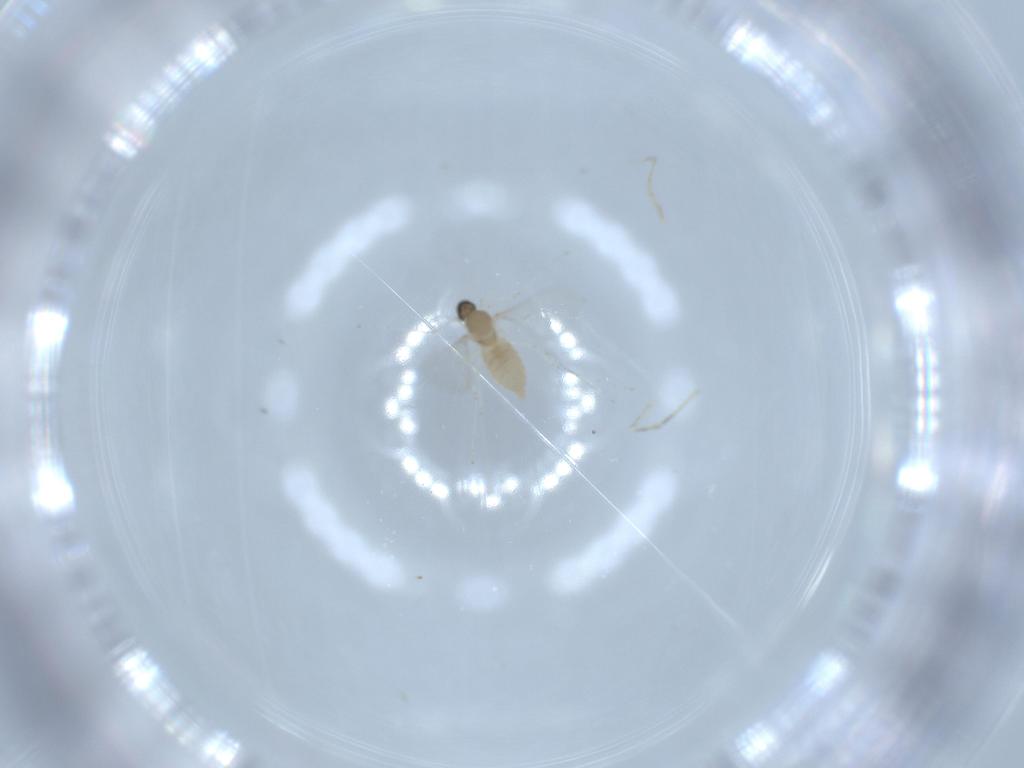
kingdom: Animalia
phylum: Arthropoda
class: Insecta
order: Diptera
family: Cecidomyiidae
